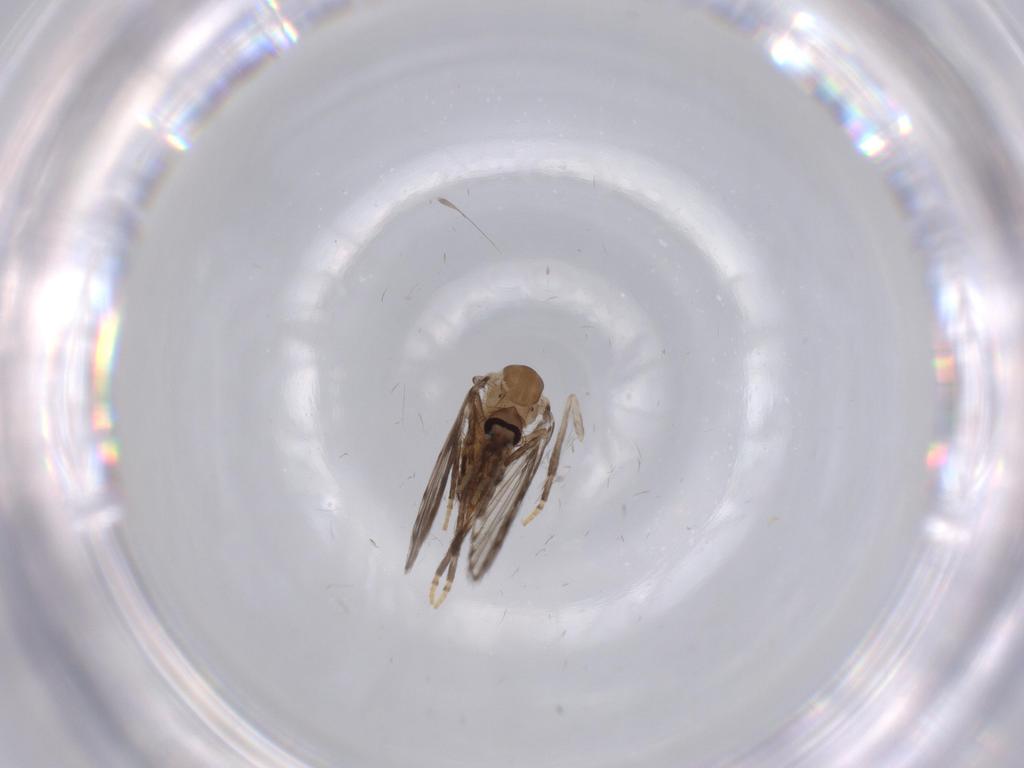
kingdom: Animalia
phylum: Arthropoda
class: Insecta
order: Diptera
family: Psychodidae
